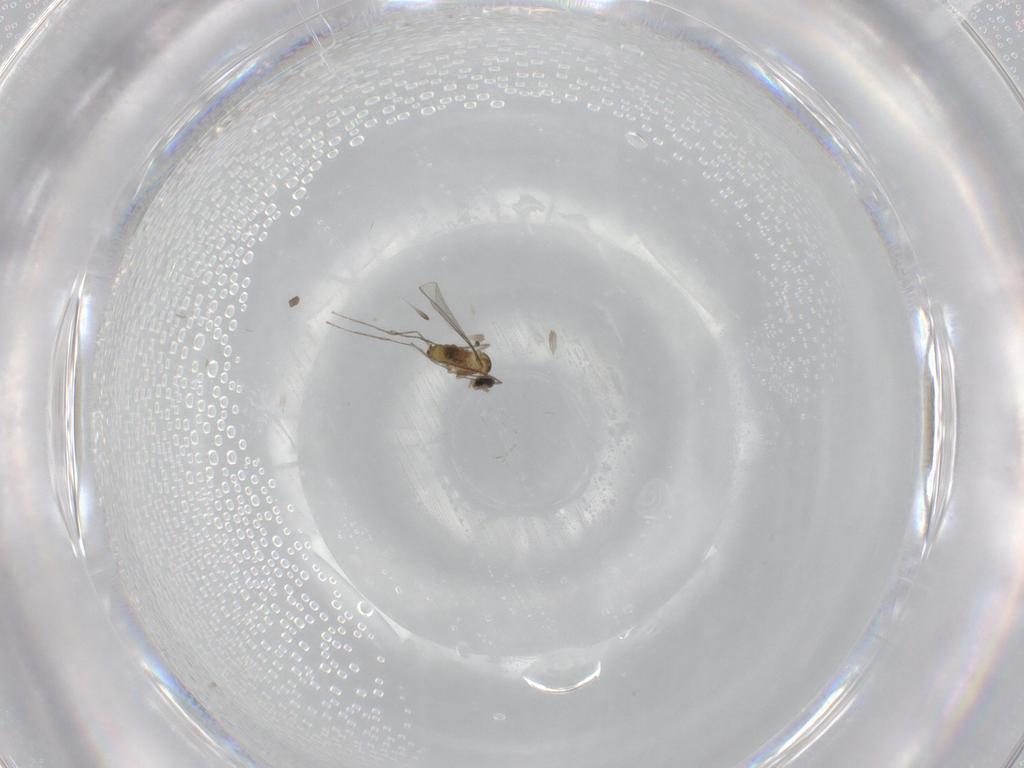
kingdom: Animalia
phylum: Arthropoda
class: Insecta
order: Diptera
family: Cecidomyiidae
